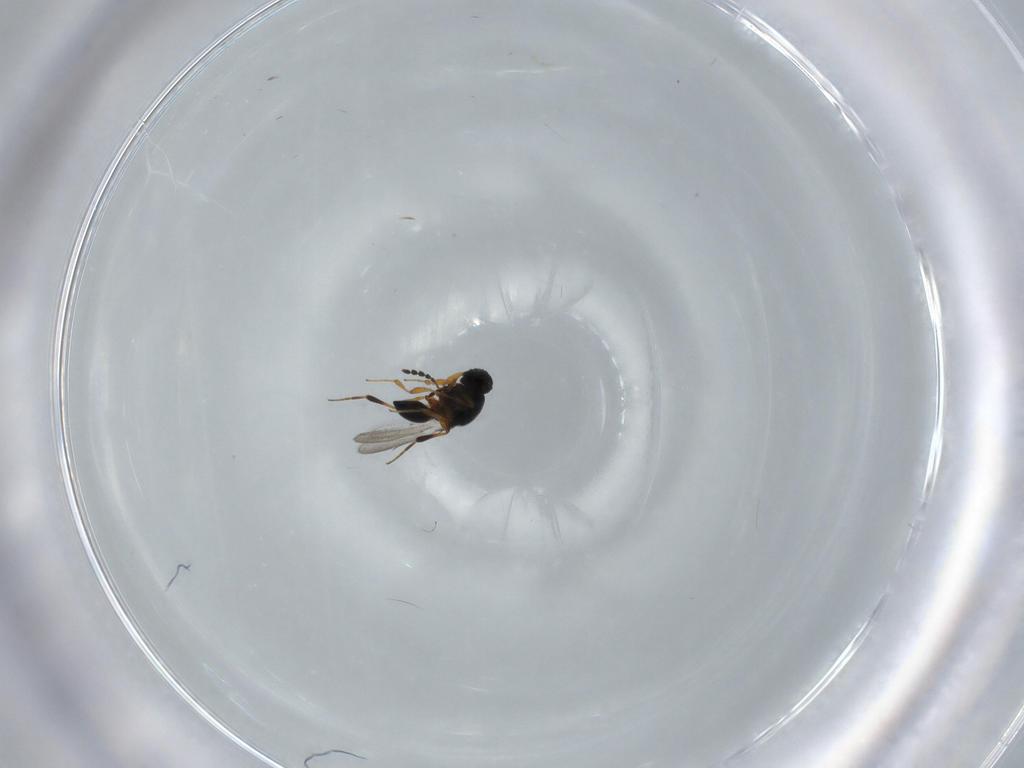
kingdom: Animalia
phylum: Arthropoda
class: Insecta
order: Hymenoptera
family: Platygastridae
